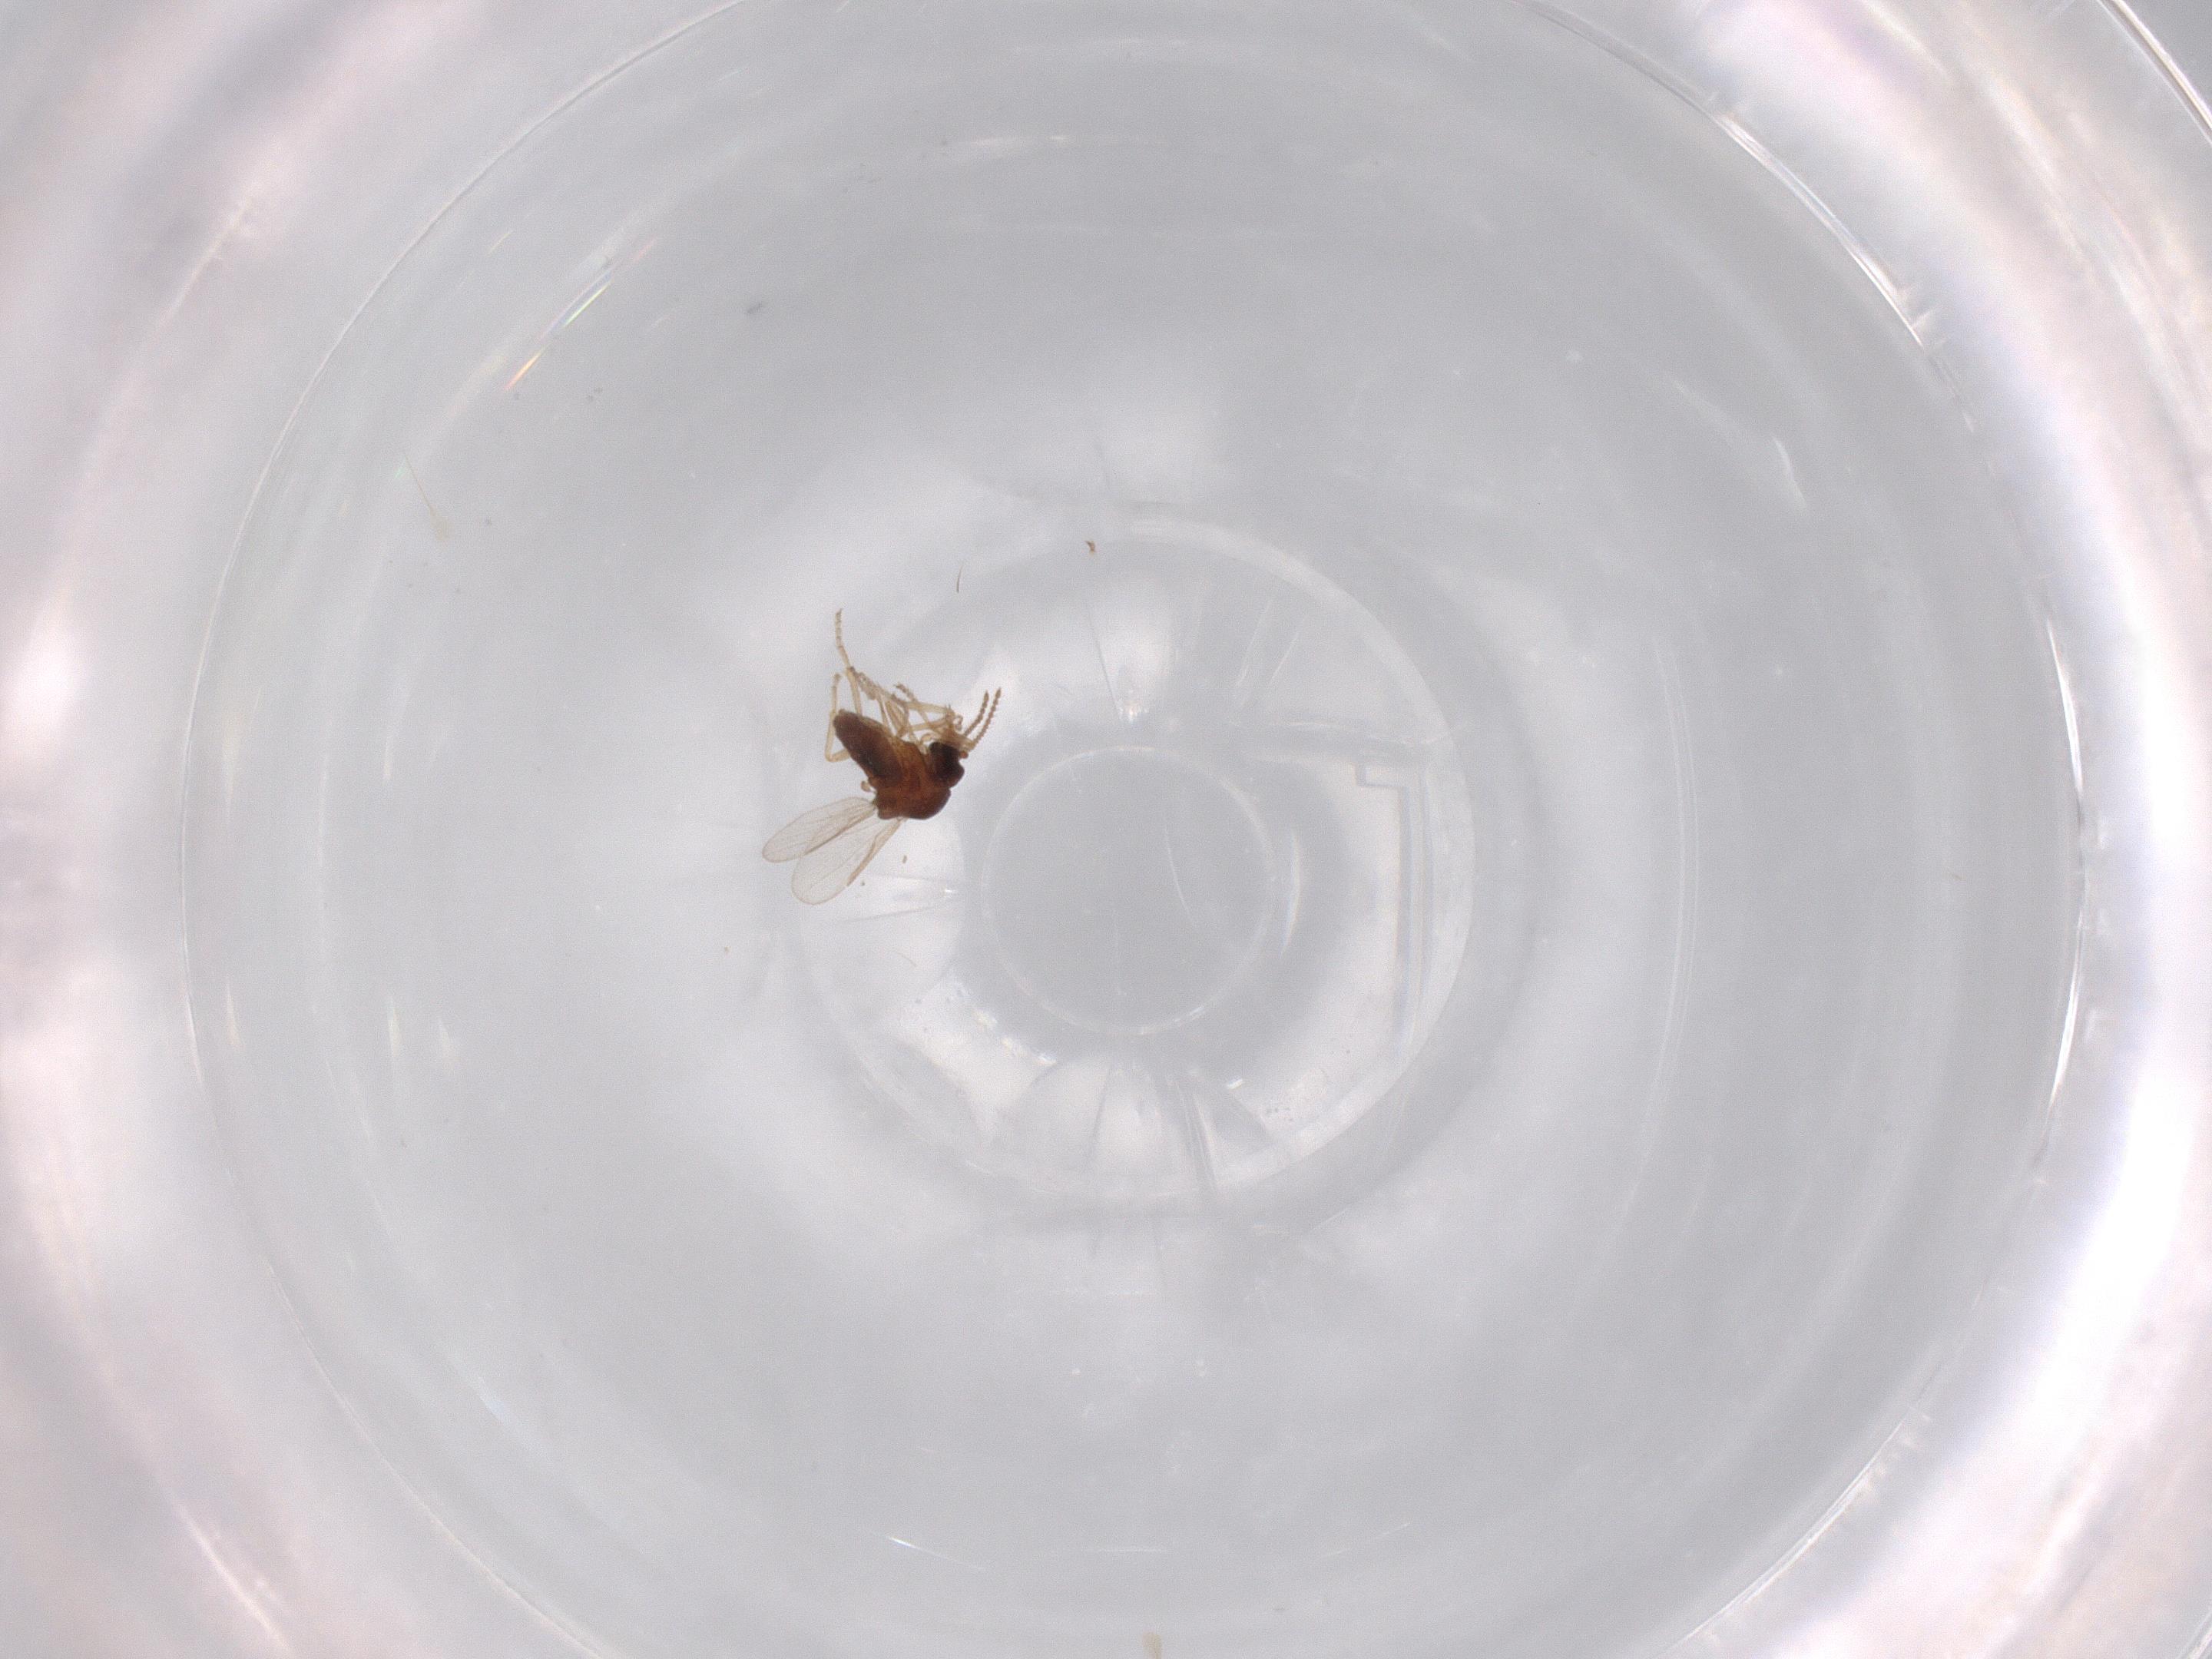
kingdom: Animalia
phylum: Arthropoda
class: Insecta
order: Diptera
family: Ceratopogonidae
